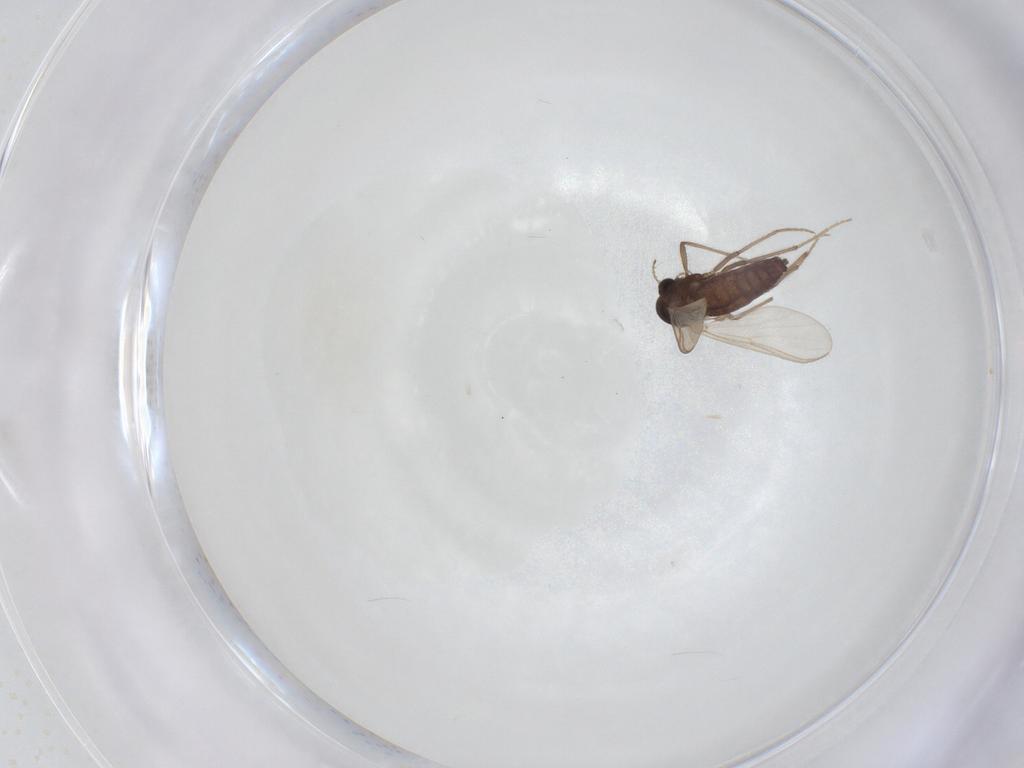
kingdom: Animalia
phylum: Arthropoda
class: Insecta
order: Diptera
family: Chironomidae
